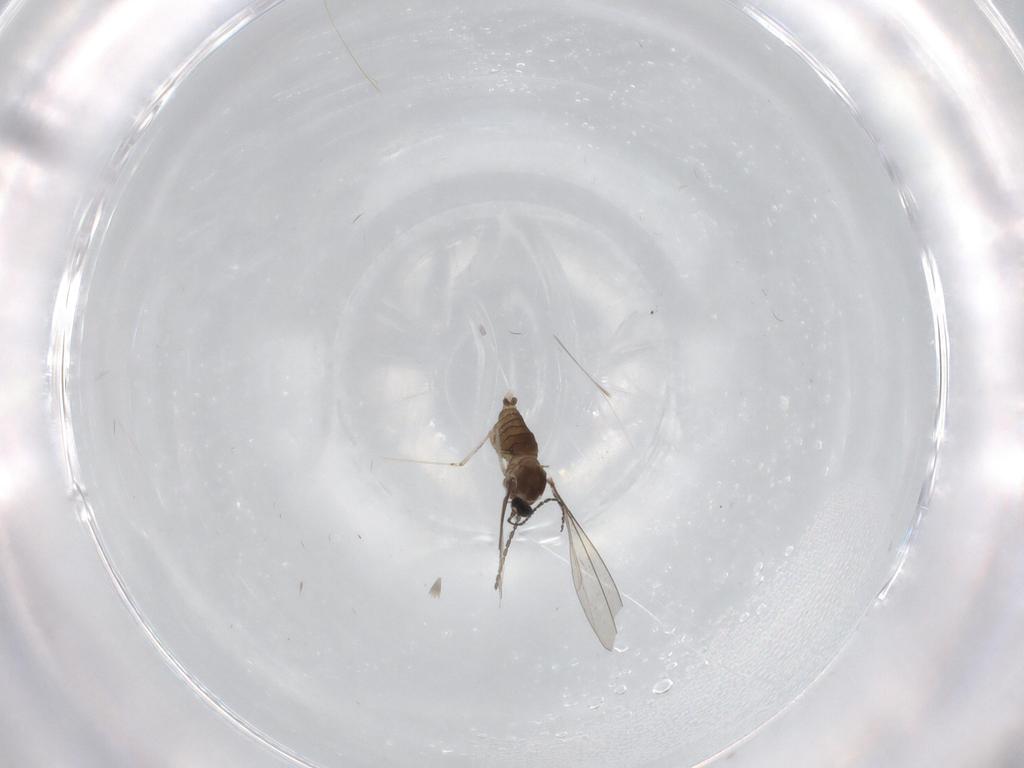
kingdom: Animalia
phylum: Arthropoda
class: Insecta
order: Diptera
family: Cecidomyiidae
